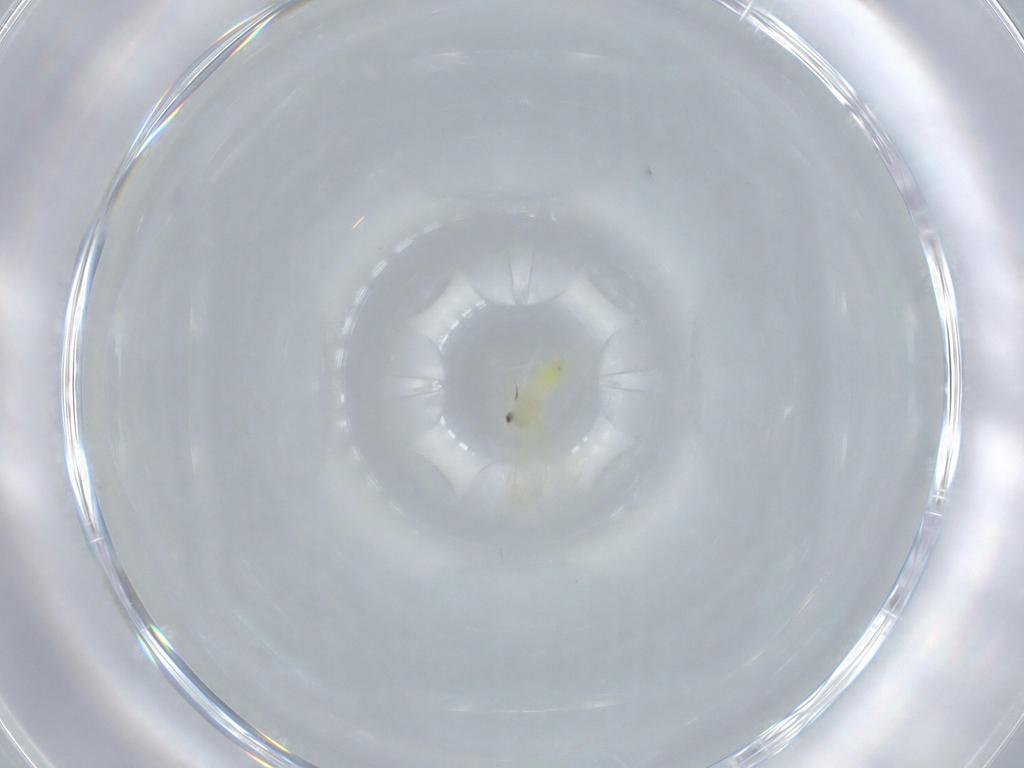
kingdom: Animalia
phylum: Arthropoda
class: Insecta
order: Hemiptera
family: Aleyrodidae
